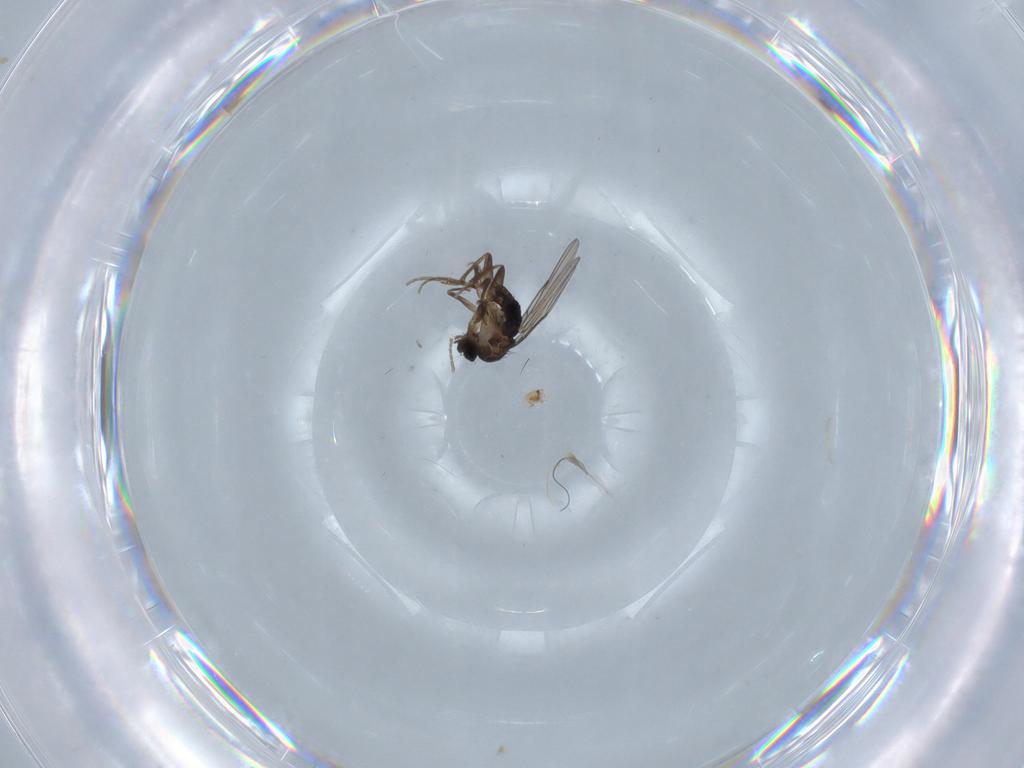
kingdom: Animalia
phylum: Arthropoda
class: Insecta
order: Diptera
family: Phoridae
